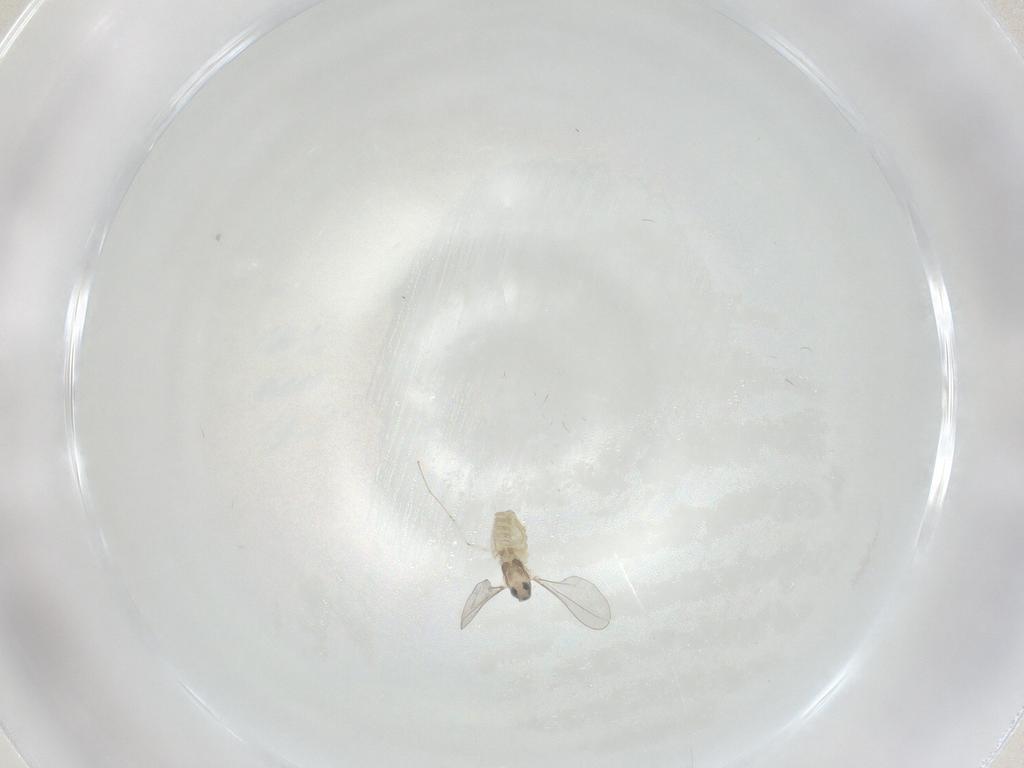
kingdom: Animalia
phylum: Arthropoda
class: Insecta
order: Diptera
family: Cecidomyiidae
